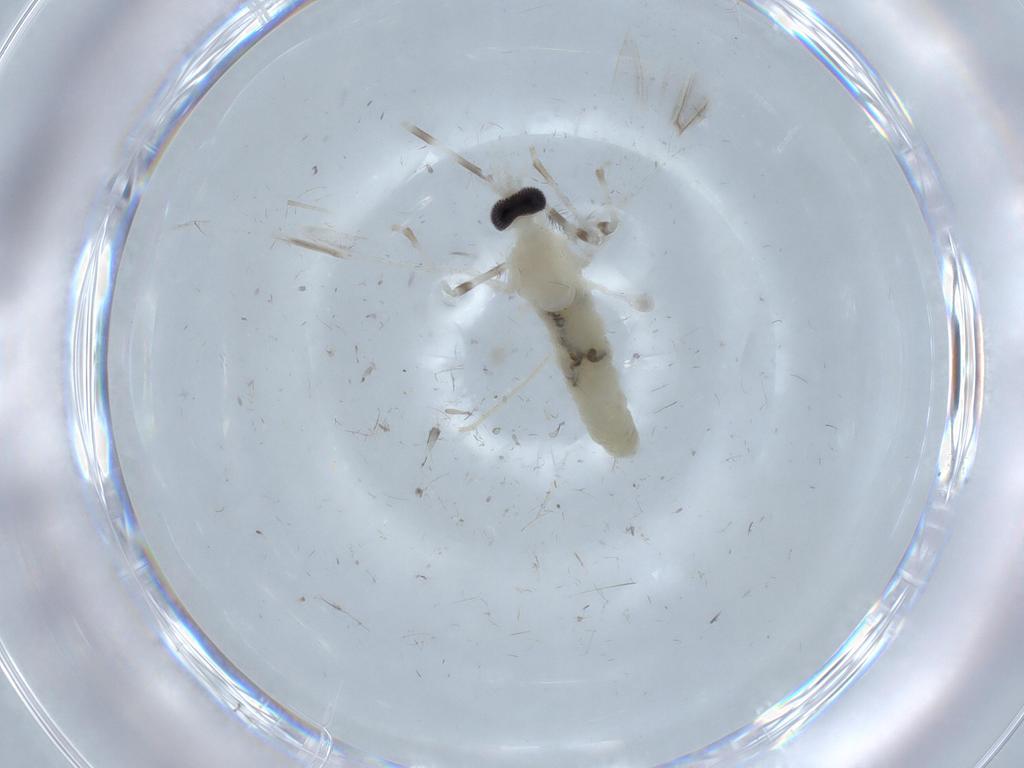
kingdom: Animalia
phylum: Arthropoda
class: Insecta
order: Diptera
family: Cecidomyiidae
